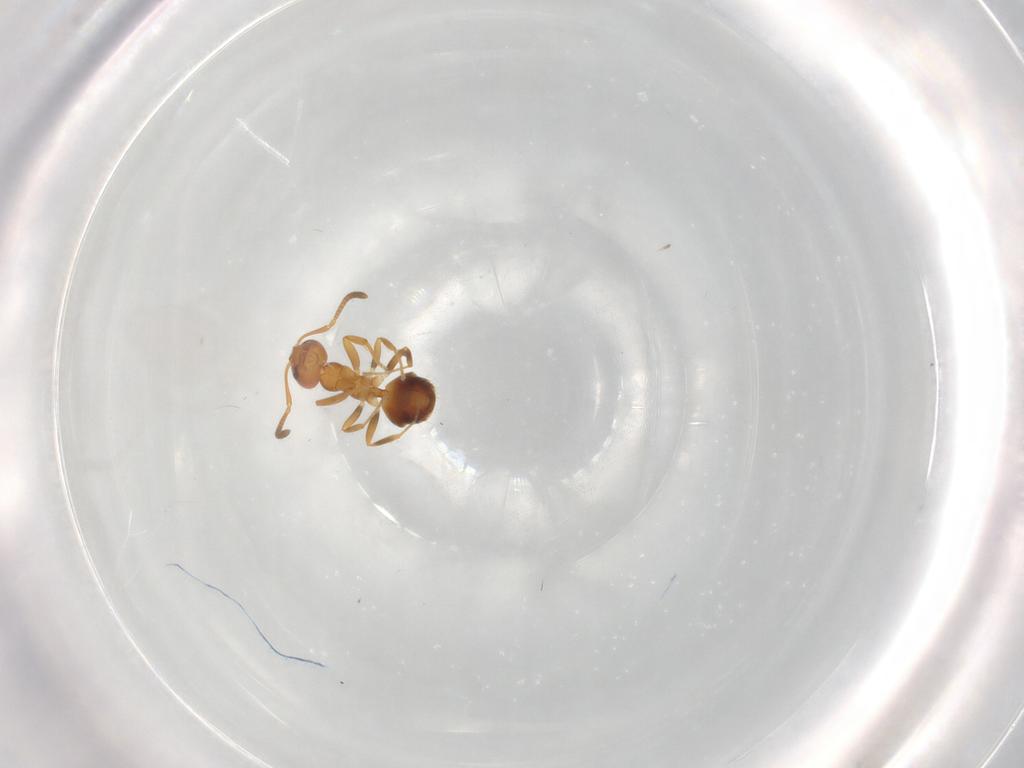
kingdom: Animalia
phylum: Arthropoda
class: Insecta
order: Hymenoptera
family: Formicidae
